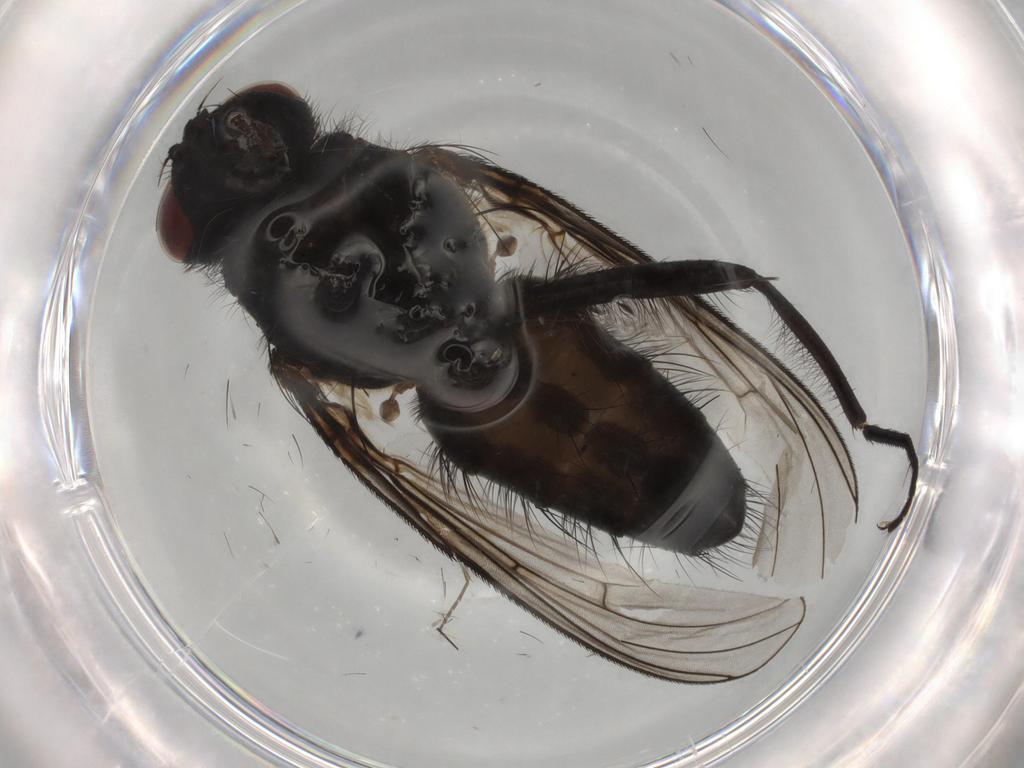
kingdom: Animalia
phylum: Arthropoda
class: Insecta
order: Diptera
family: Muscidae
